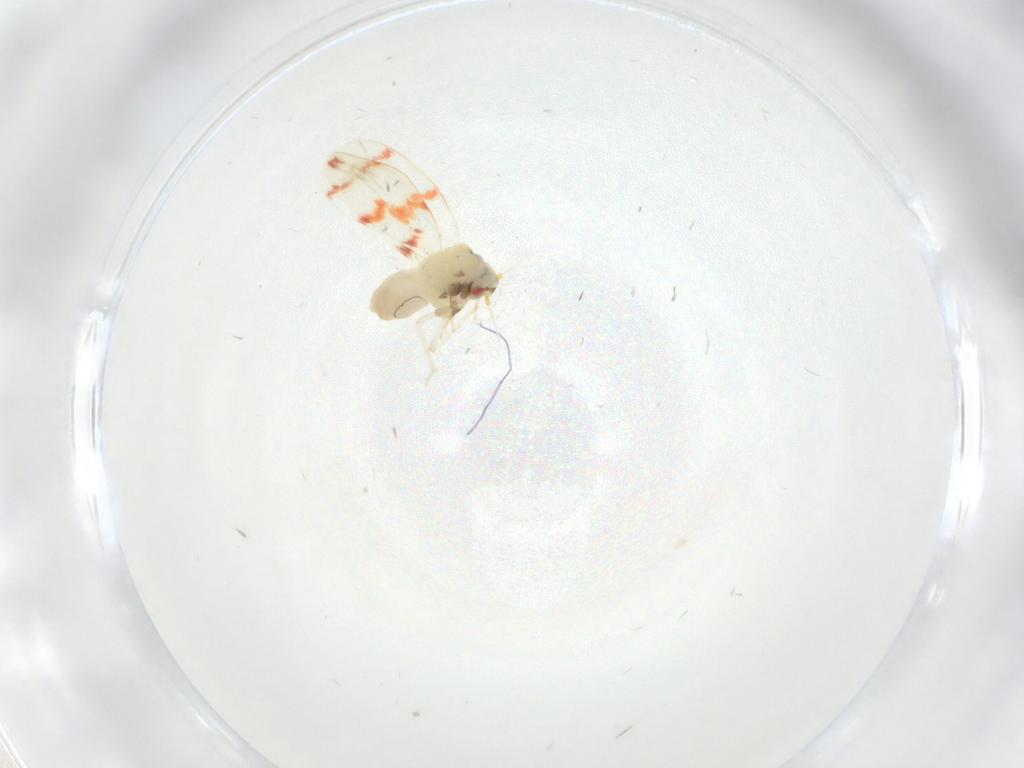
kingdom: Animalia
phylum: Arthropoda
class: Insecta
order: Hemiptera
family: Aleyrodidae
